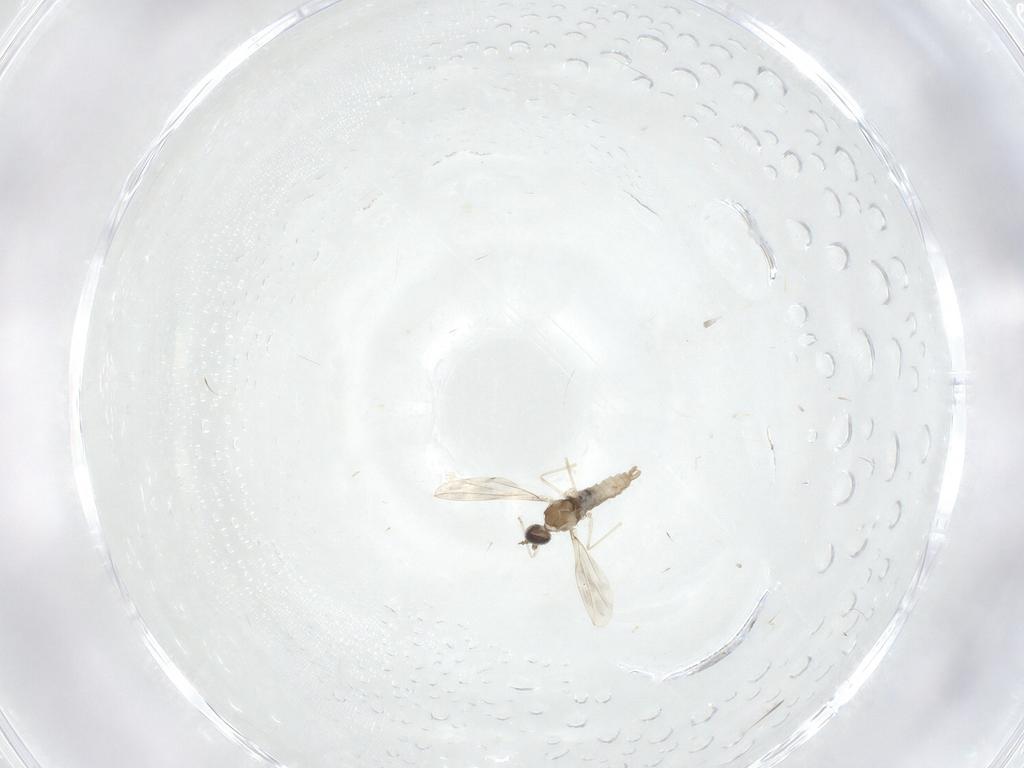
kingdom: Animalia
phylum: Arthropoda
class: Insecta
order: Diptera
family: Cecidomyiidae
